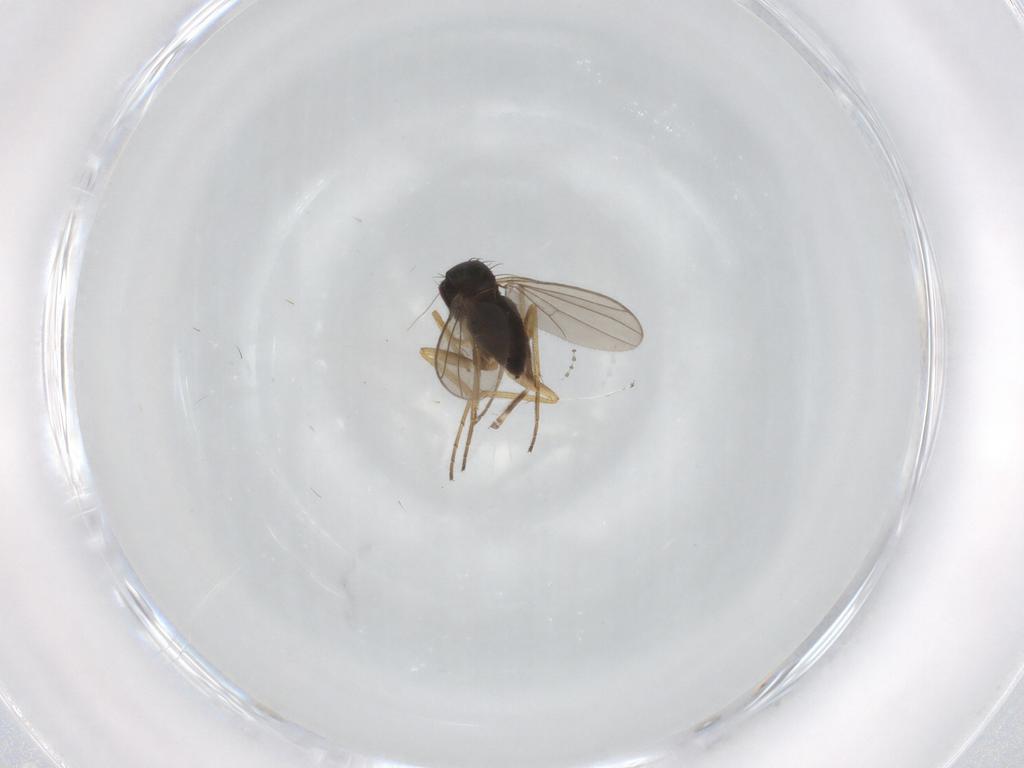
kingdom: Animalia
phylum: Arthropoda
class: Insecta
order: Diptera
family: Dolichopodidae
